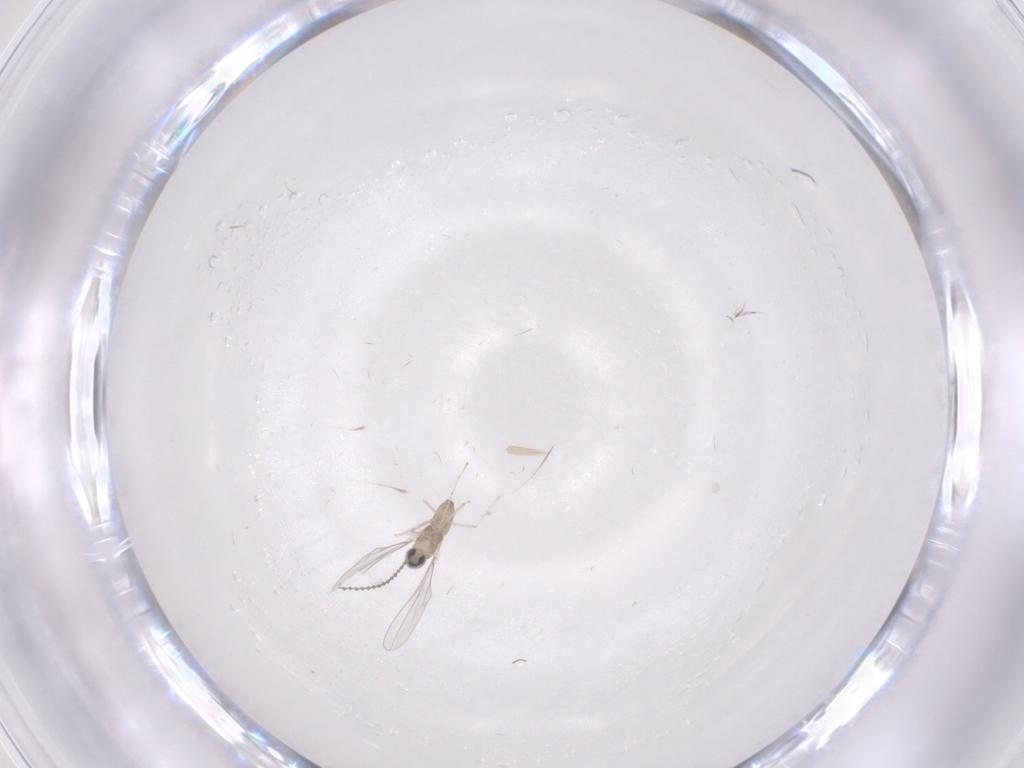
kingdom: Animalia
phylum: Arthropoda
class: Insecta
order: Diptera
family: Cecidomyiidae
